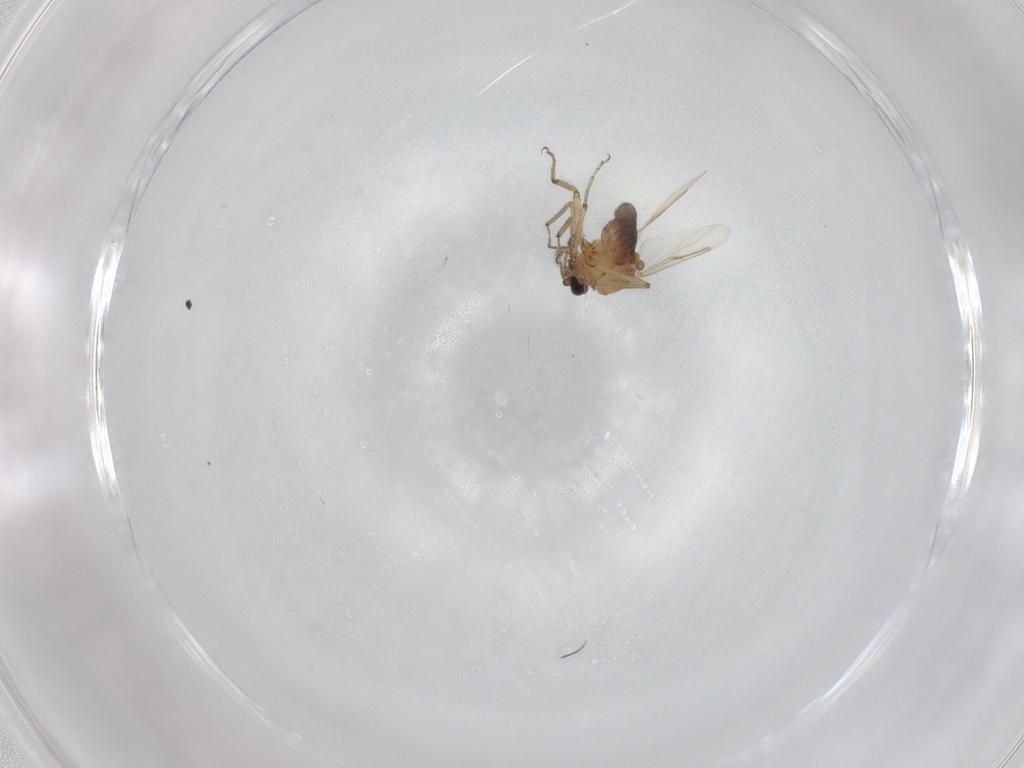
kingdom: Animalia
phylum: Arthropoda
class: Insecta
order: Diptera
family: Ceratopogonidae
